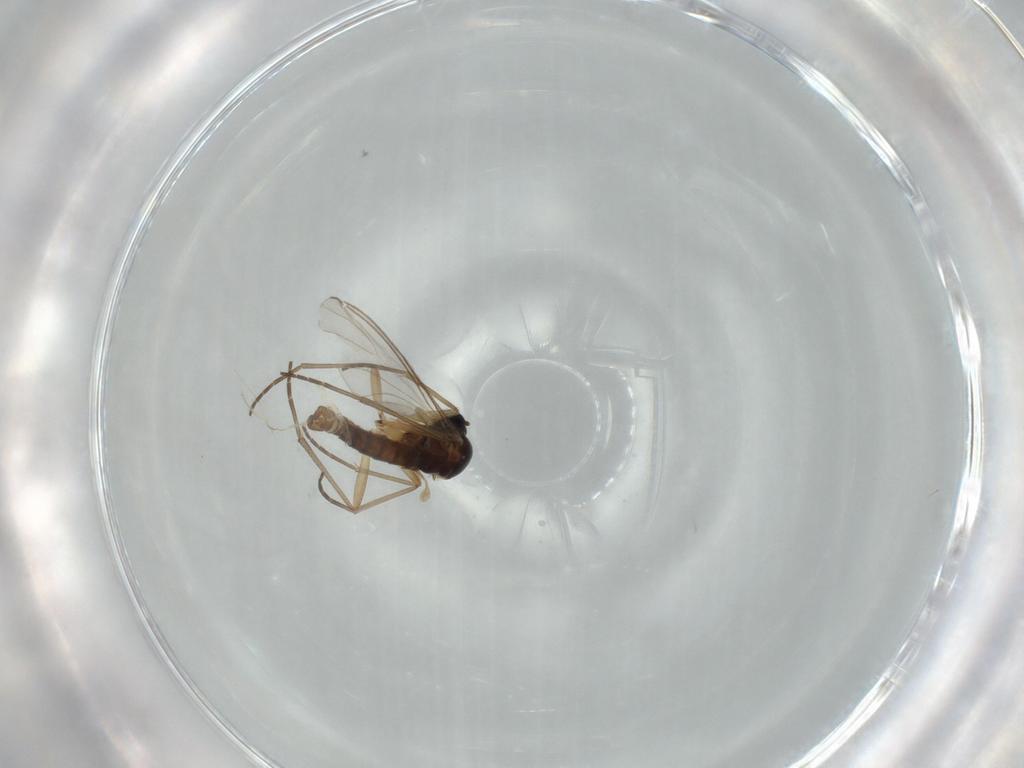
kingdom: Animalia
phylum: Arthropoda
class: Insecta
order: Diptera
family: Sciaridae
